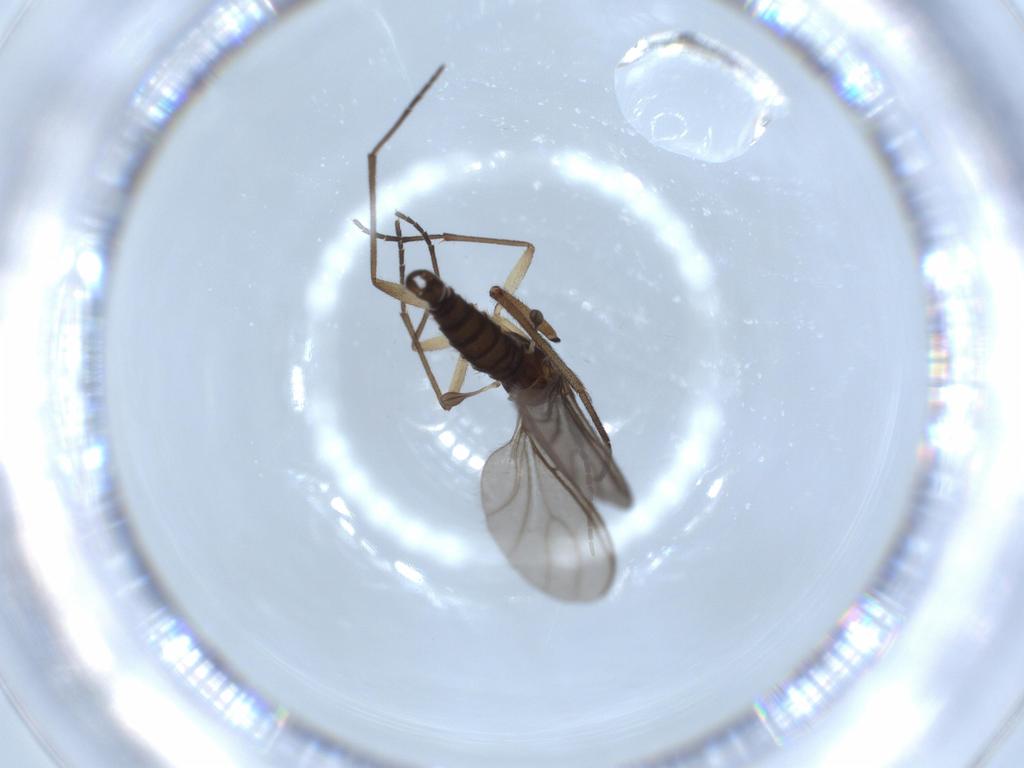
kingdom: Animalia
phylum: Arthropoda
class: Insecta
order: Diptera
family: Sciaridae
